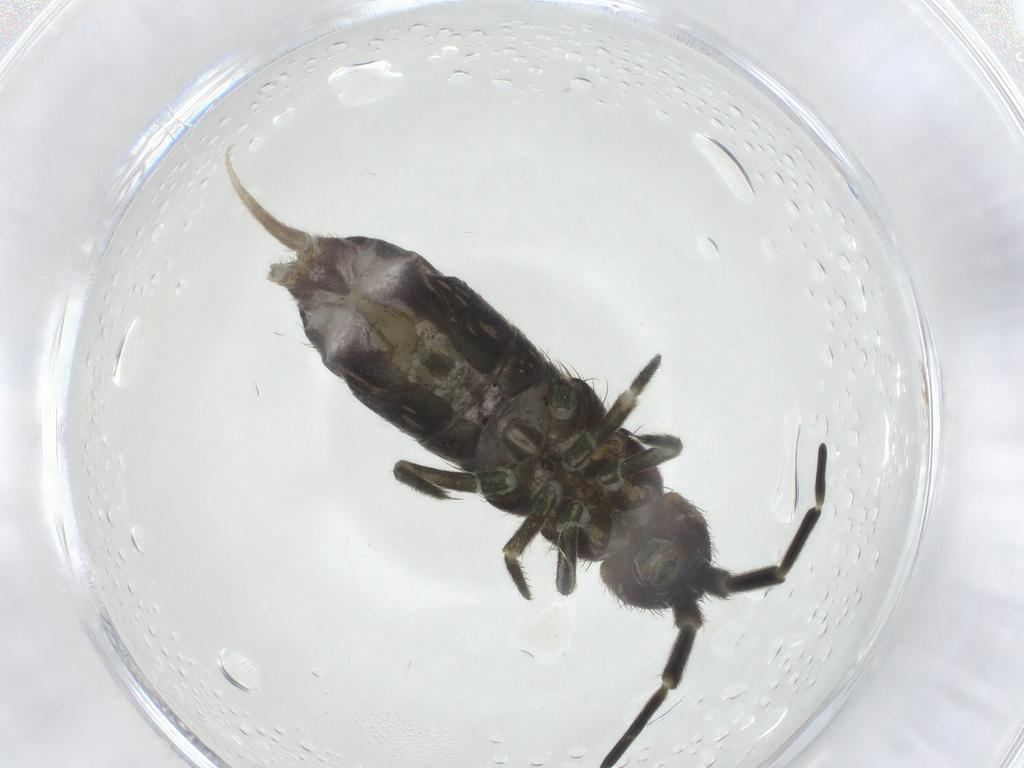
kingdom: Animalia
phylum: Arthropoda
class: Collembola
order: Entomobryomorpha
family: Isotomidae
